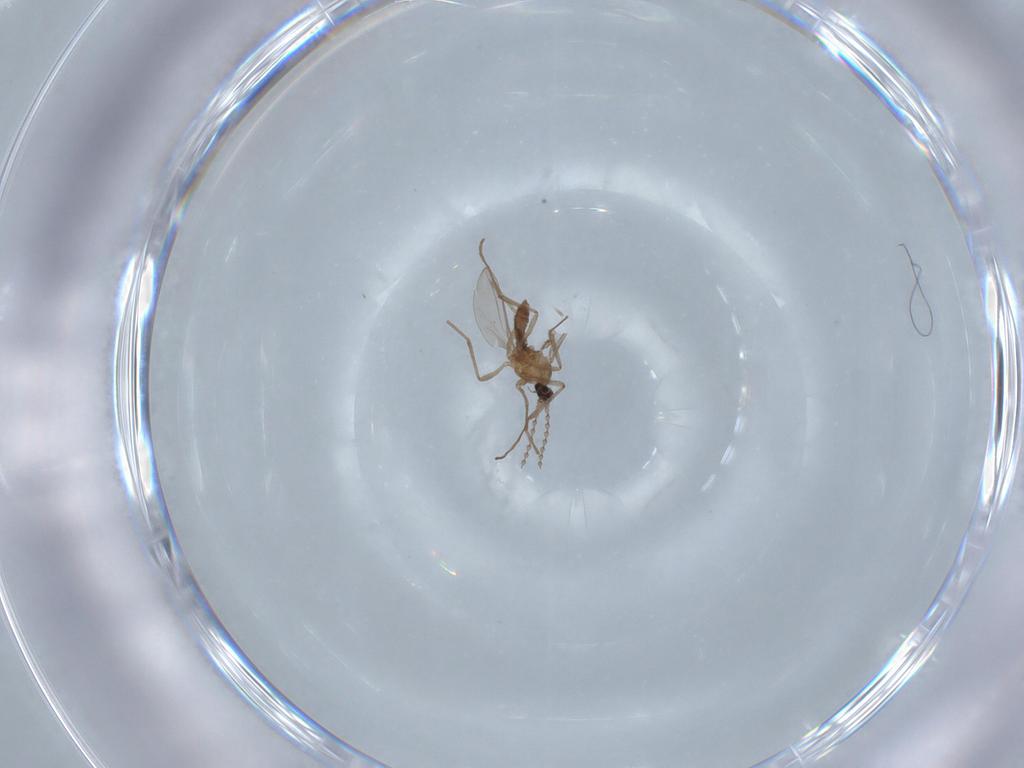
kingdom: Animalia
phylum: Arthropoda
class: Insecta
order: Diptera
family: Cecidomyiidae
